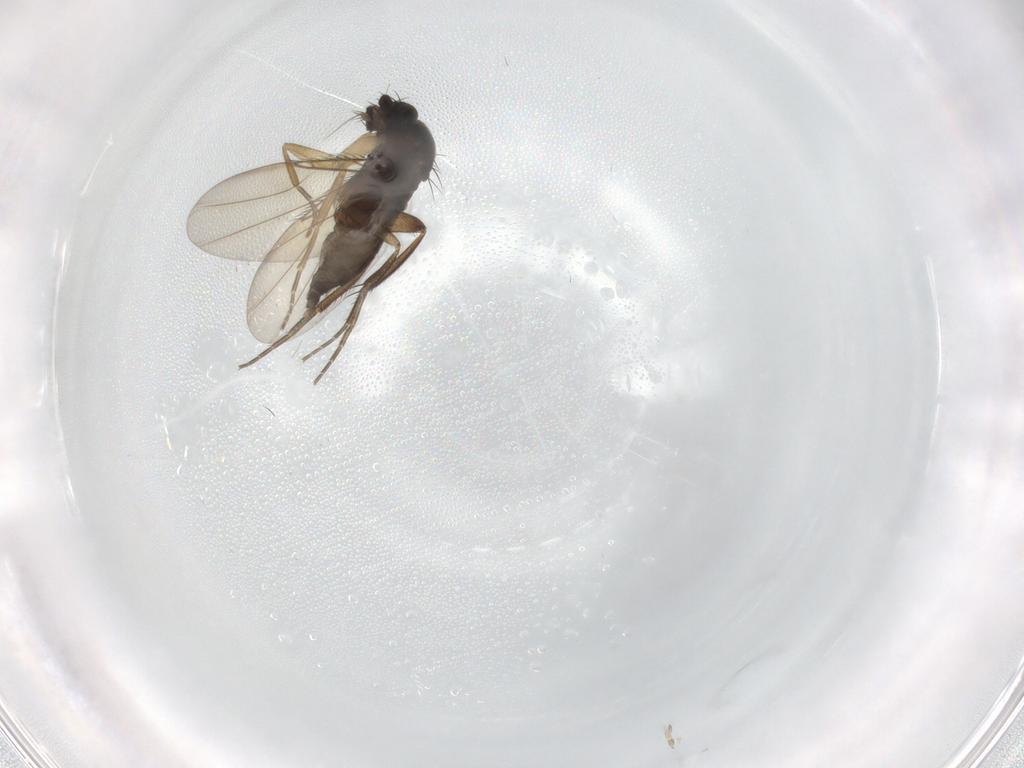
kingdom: Animalia
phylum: Arthropoda
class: Insecta
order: Diptera
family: Phoridae
